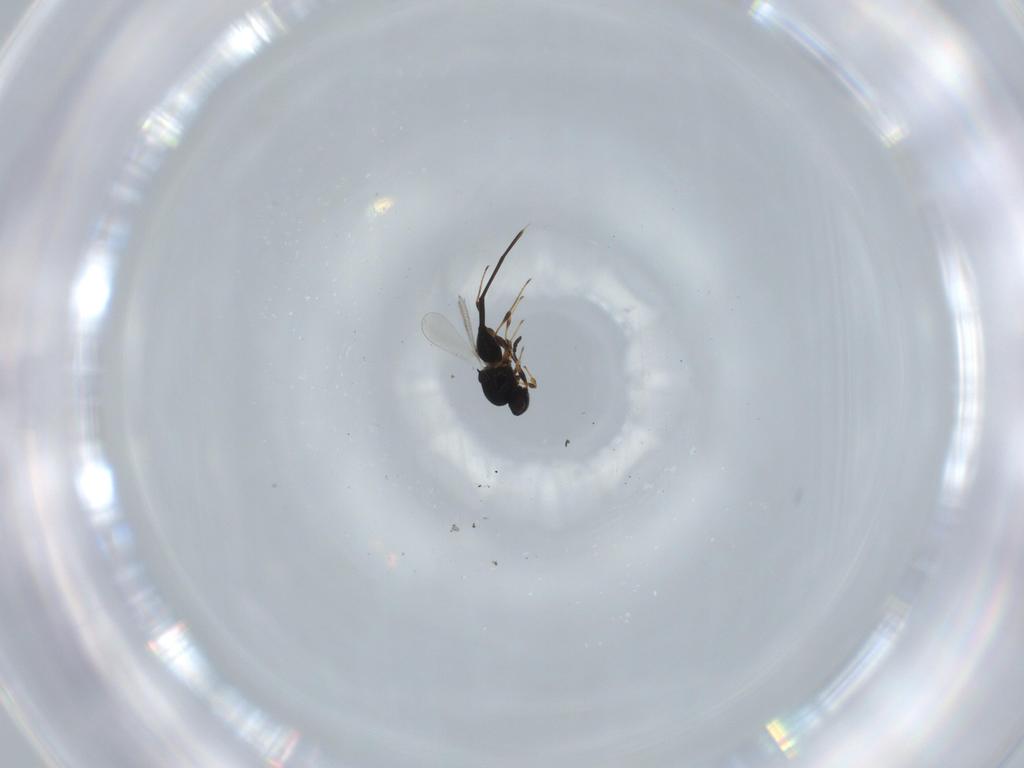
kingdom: Animalia
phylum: Arthropoda
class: Insecta
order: Hymenoptera
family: Platygastridae
